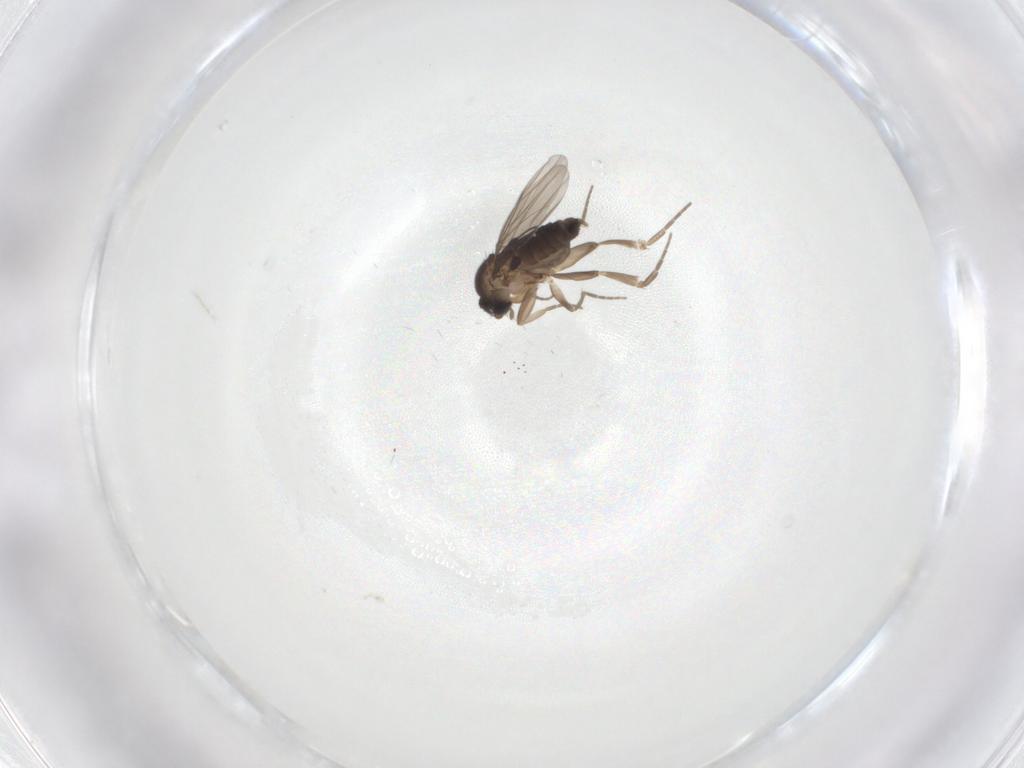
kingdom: Animalia
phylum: Arthropoda
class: Insecta
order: Diptera
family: Phoridae
